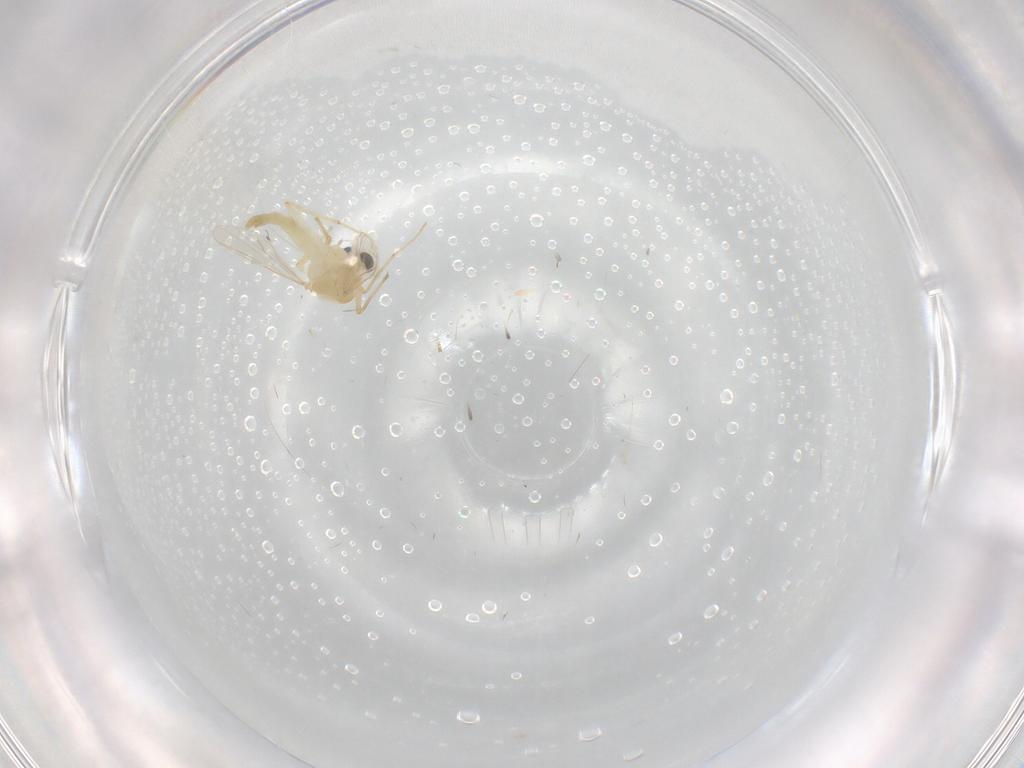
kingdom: Animalia
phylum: Arthropoda
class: Insecta
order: Diptera
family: Chironomidae
